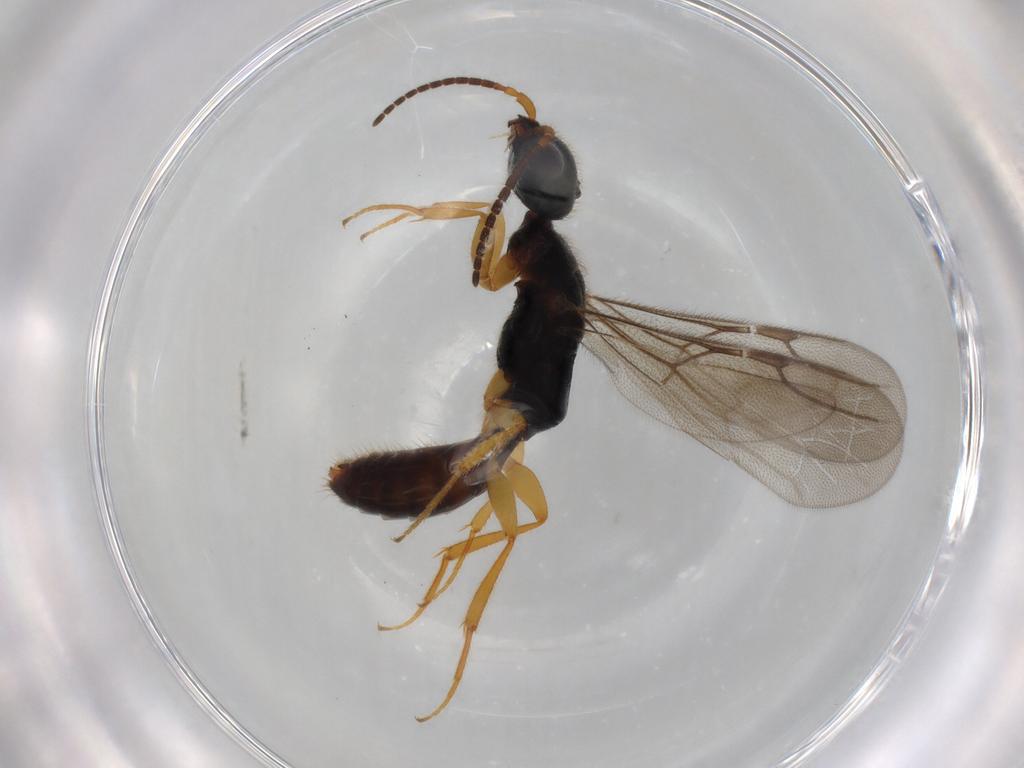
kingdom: Animalia
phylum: Arthropoda
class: Insecta
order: Hymenoptera
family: Bethylidae
